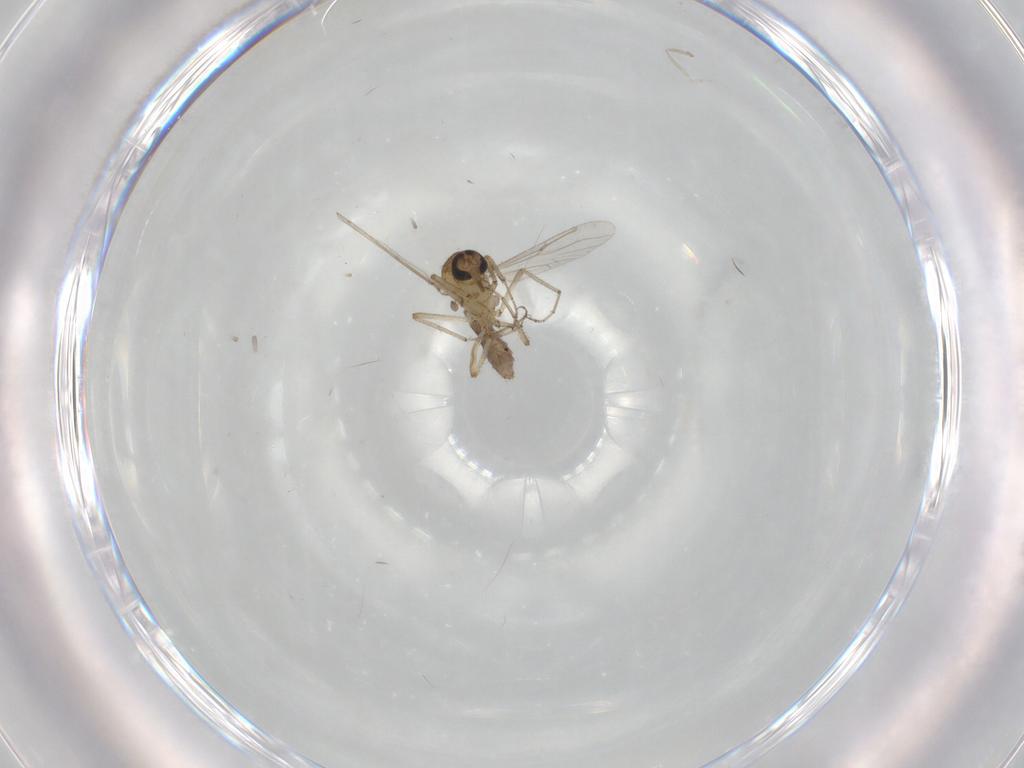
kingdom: Animalia
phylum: Arthropoda
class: Insecta
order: Diptera
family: Ceratopogonidae
